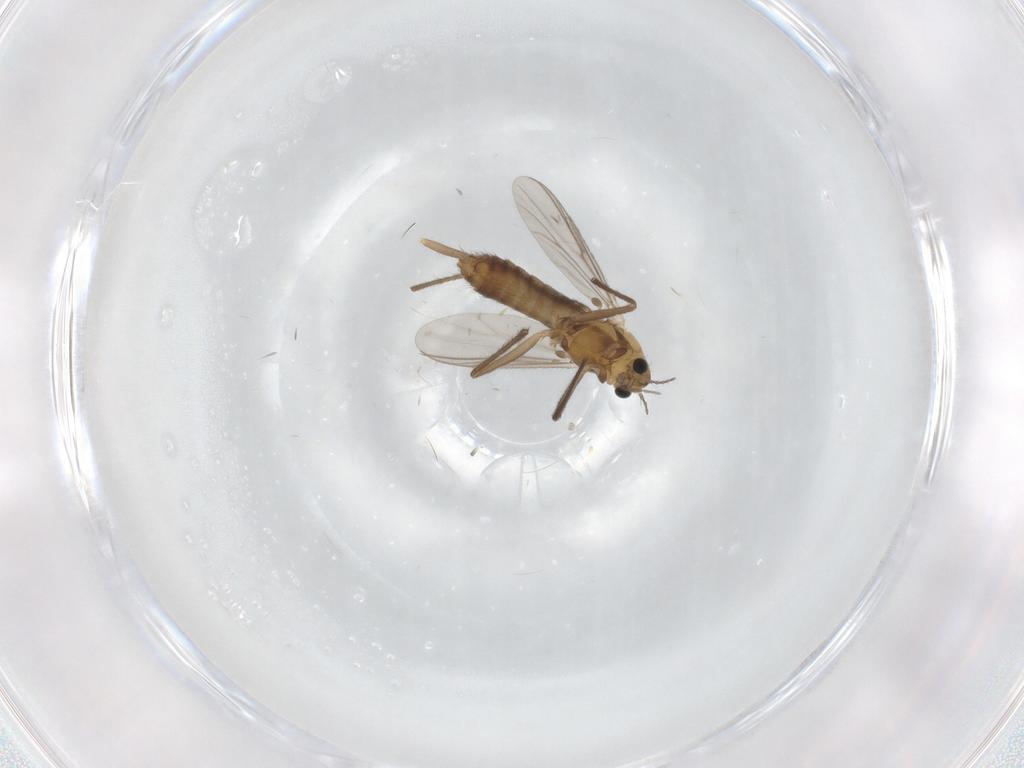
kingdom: Animalia
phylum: Arthropoda
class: Insecta
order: Diptera
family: Chironomidae
